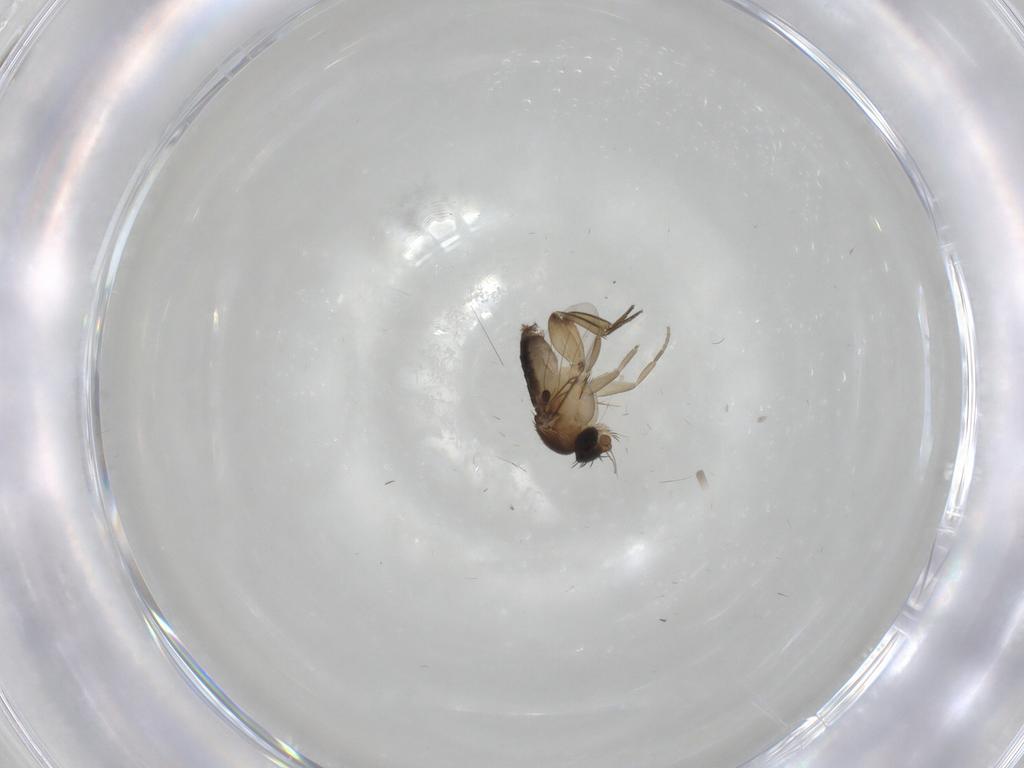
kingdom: Animalia
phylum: Arthropoda
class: Insecta
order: Diptera
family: Phoridae
